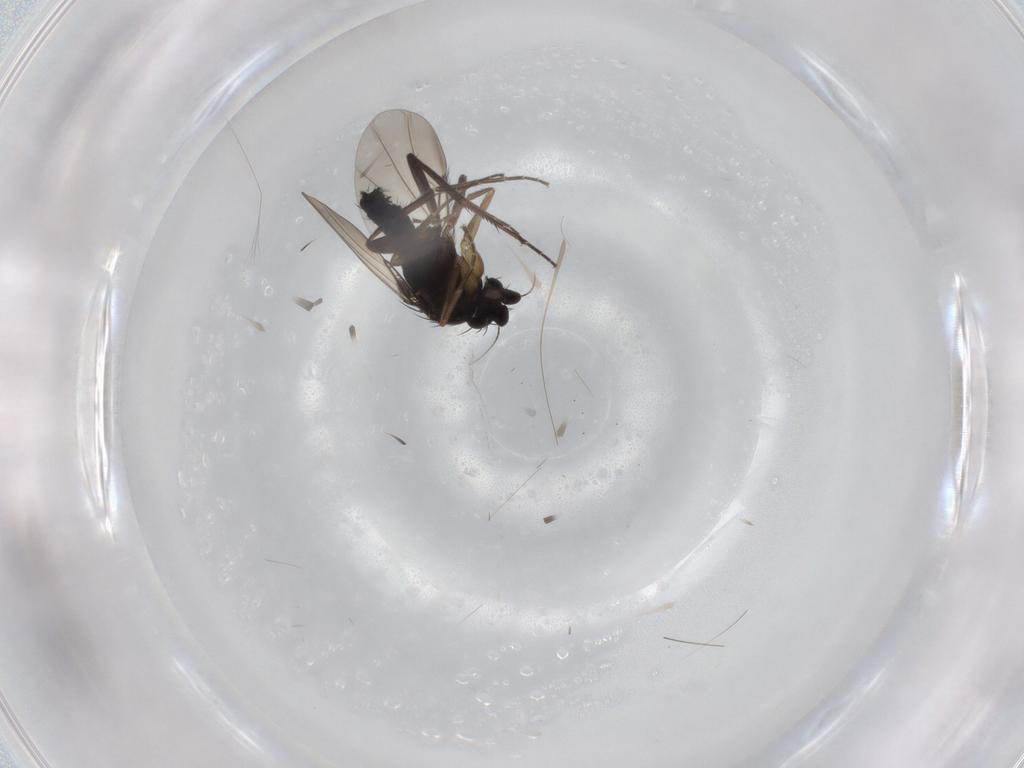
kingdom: Animalia
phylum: Arthropoda
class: Insecta
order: Diptera
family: Phoridae
